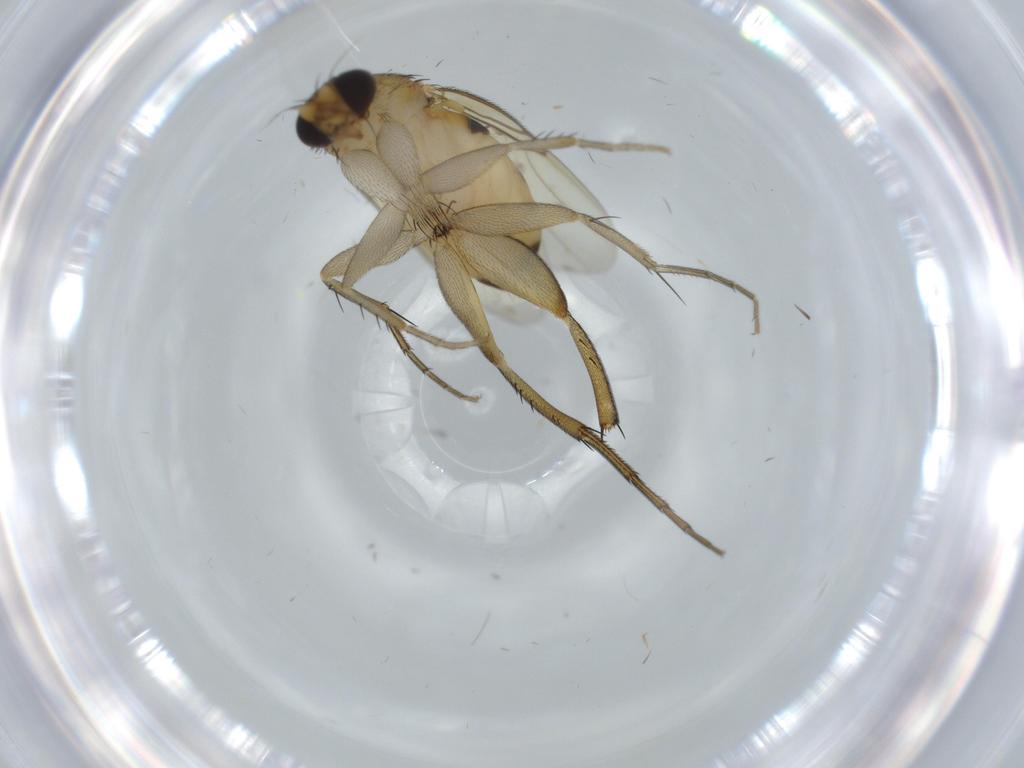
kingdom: Animalia
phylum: Arthropoda
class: Insecta
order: Diptera
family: Phoridae
